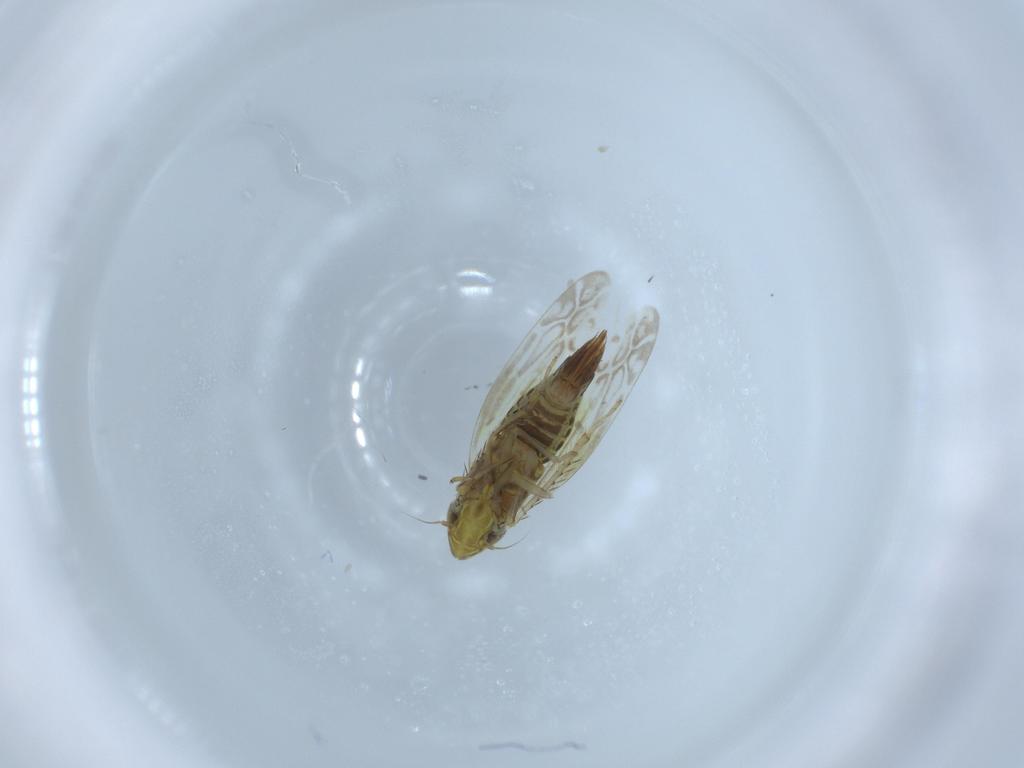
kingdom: Animalia
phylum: Arthropoda
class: Insecta
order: Hemiptera
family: Cicadellidae
